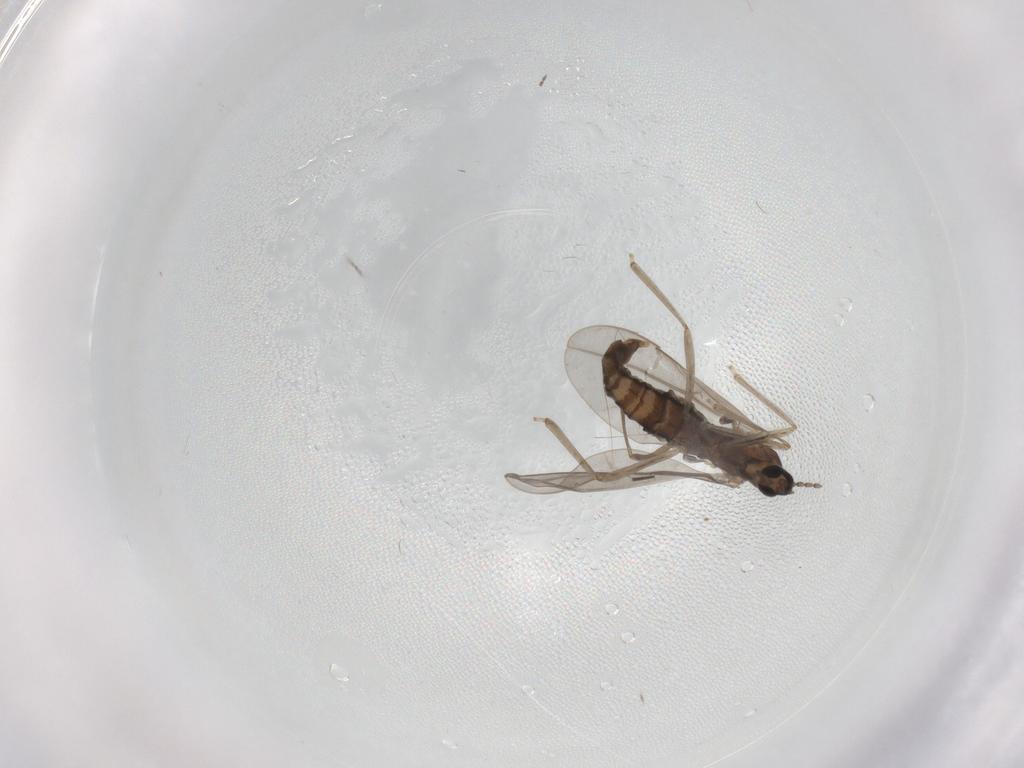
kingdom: Animalia
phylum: Arthropoda
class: Insecta
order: Diptera
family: Cecidomyiidae
